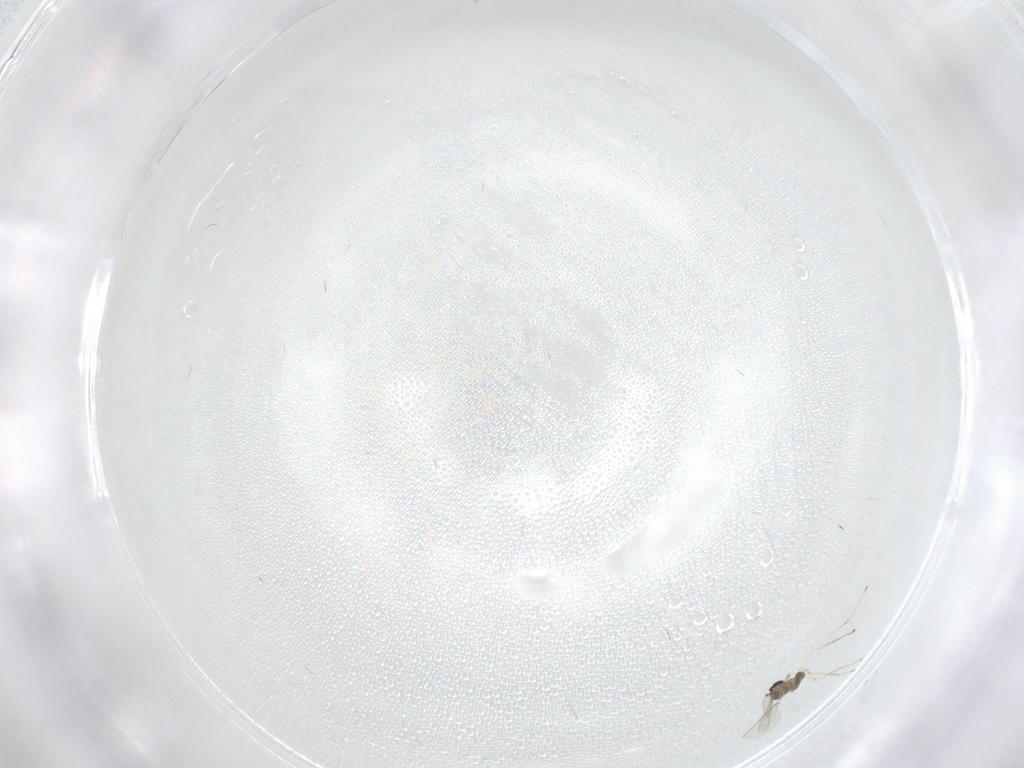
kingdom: Animalia
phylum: Arthropoda
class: Insecta
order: Diptera
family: Cecidomyiidae
